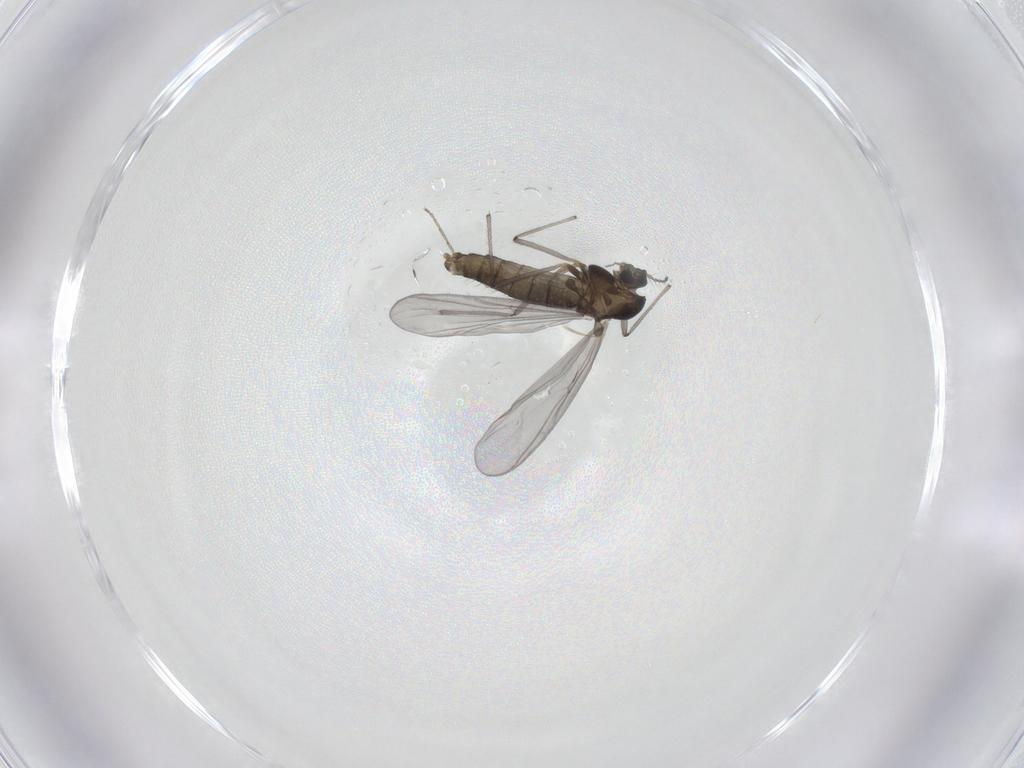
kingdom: Animalia
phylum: Arthropoda
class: Insecta
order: Diptera
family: Chironomidae
